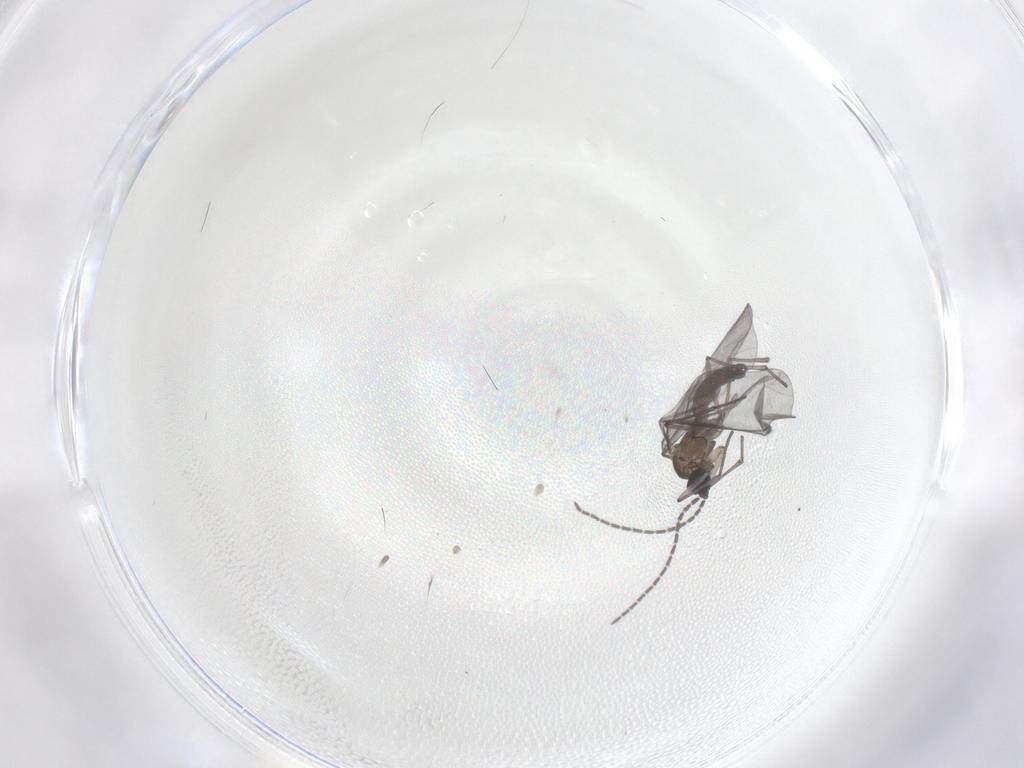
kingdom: Animalia
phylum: Arthropoda
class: Insecta
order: Diptera
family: Sciaridae
